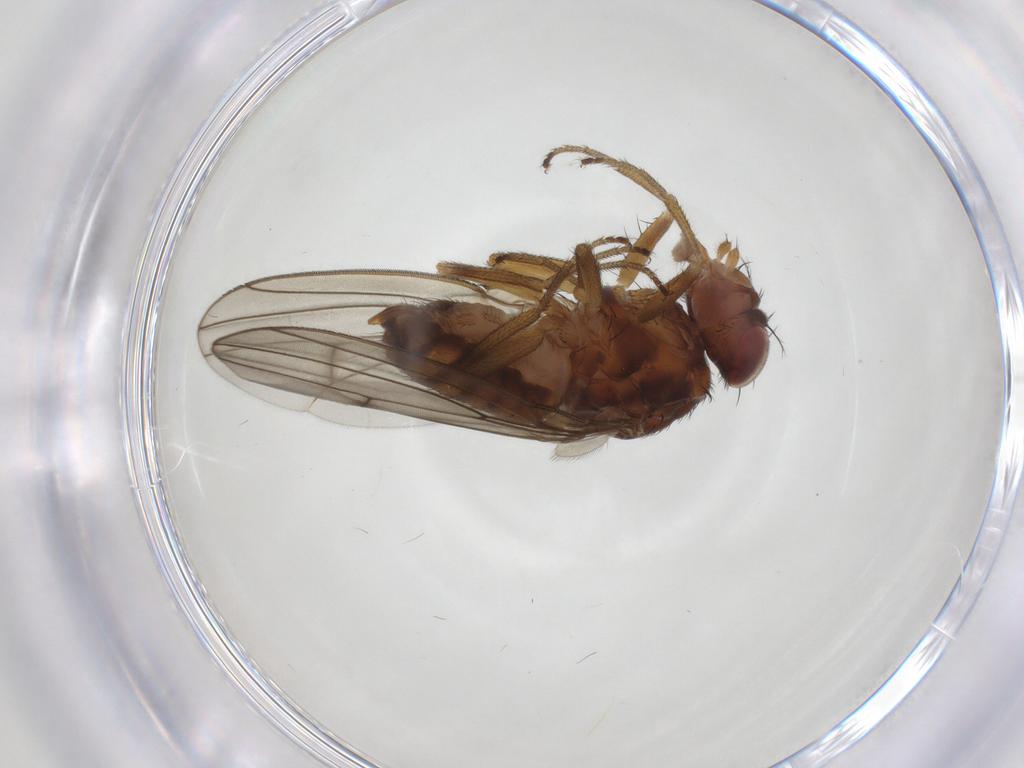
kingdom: Animalia
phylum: Arthropoda
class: Insecta
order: Diptera
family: Drosophilidae
